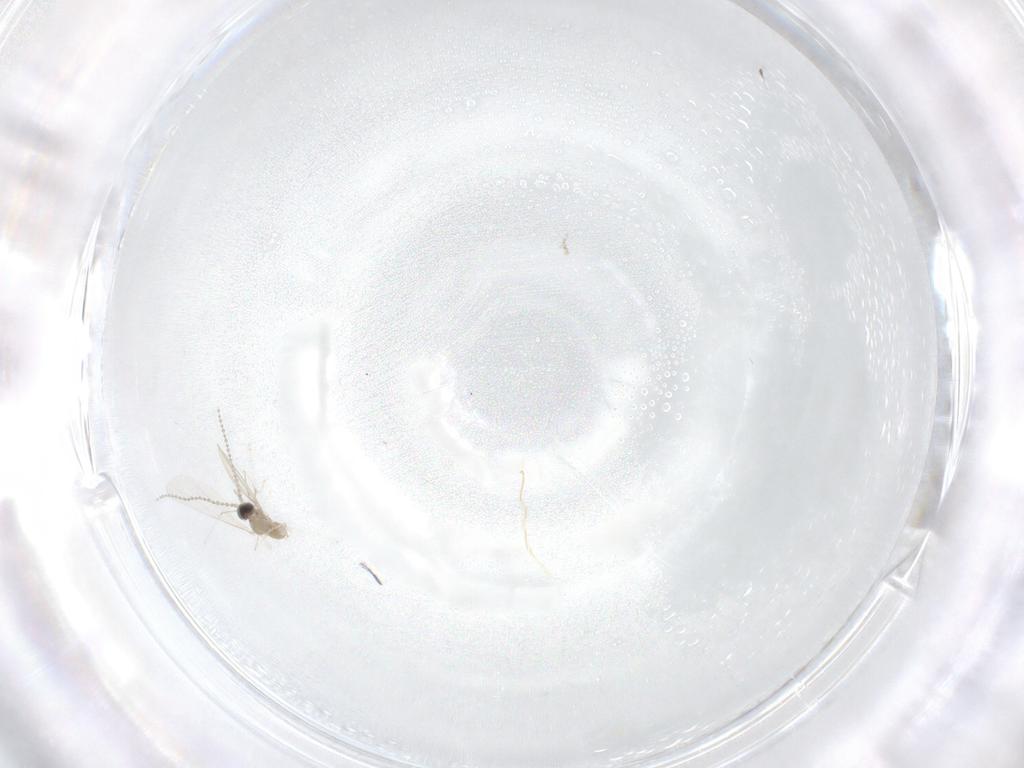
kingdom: Animalia
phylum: Arthropoda
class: Insecta
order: Diptera
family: Cecidomyiidae
